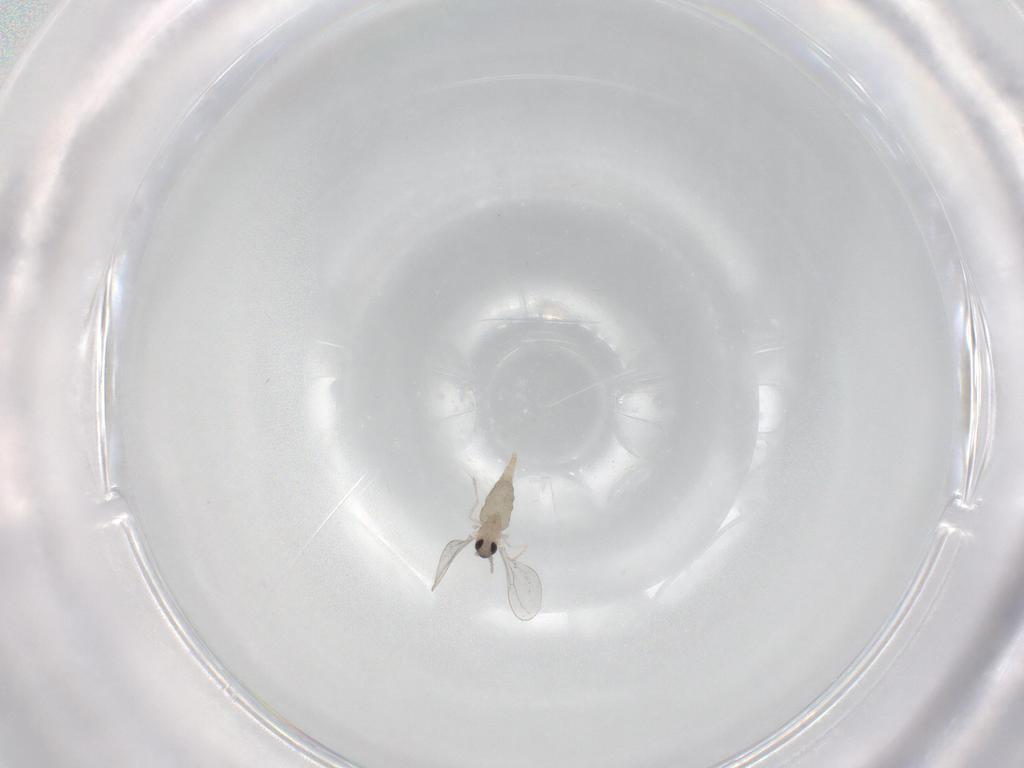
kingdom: Animalia
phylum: Arthropoda
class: Insecta
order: Diptera
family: Cecidomyiidae
